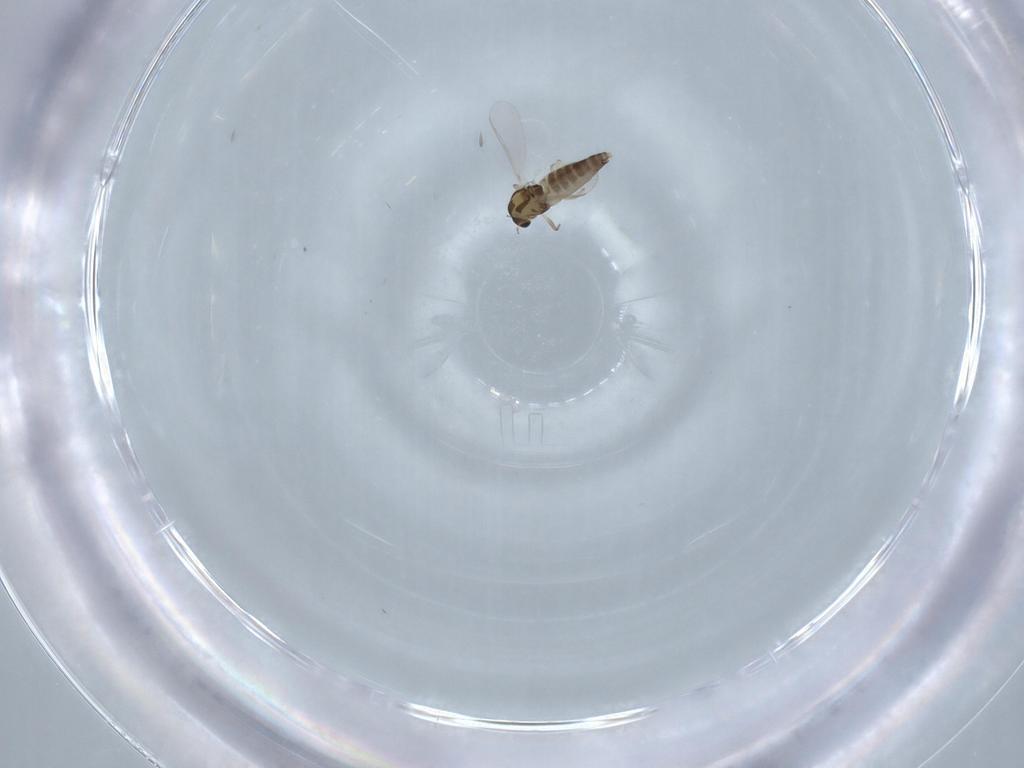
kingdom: Animalia
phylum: Arthropoda
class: Insecta
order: Diptera
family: Chironomidae
